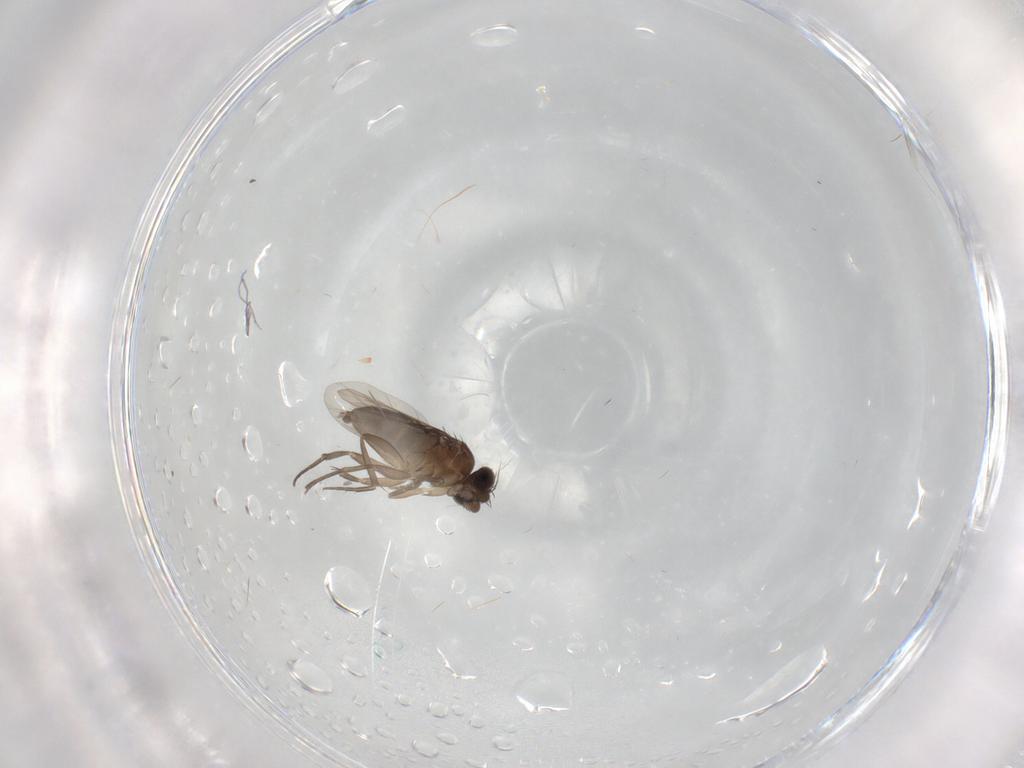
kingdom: Animalia
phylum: Arthropoda
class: Insecta
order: Diptera
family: Phoridae
